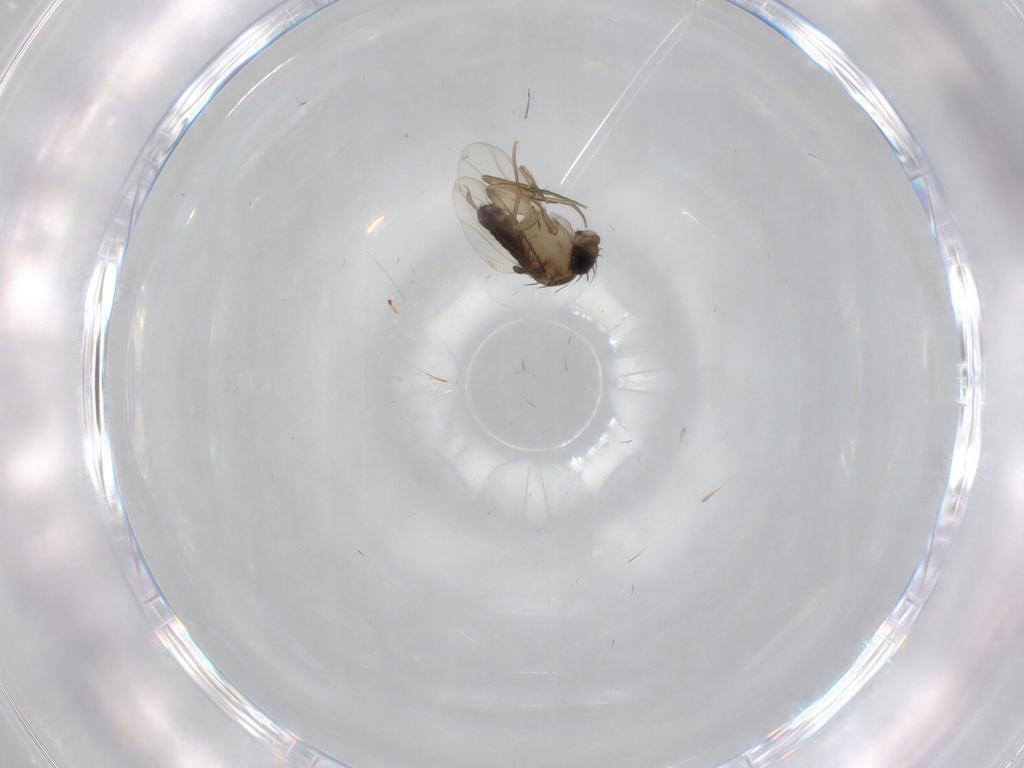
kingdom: Animalia
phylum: Arthropoda
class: Insecta
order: Diptera
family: Phoridae
